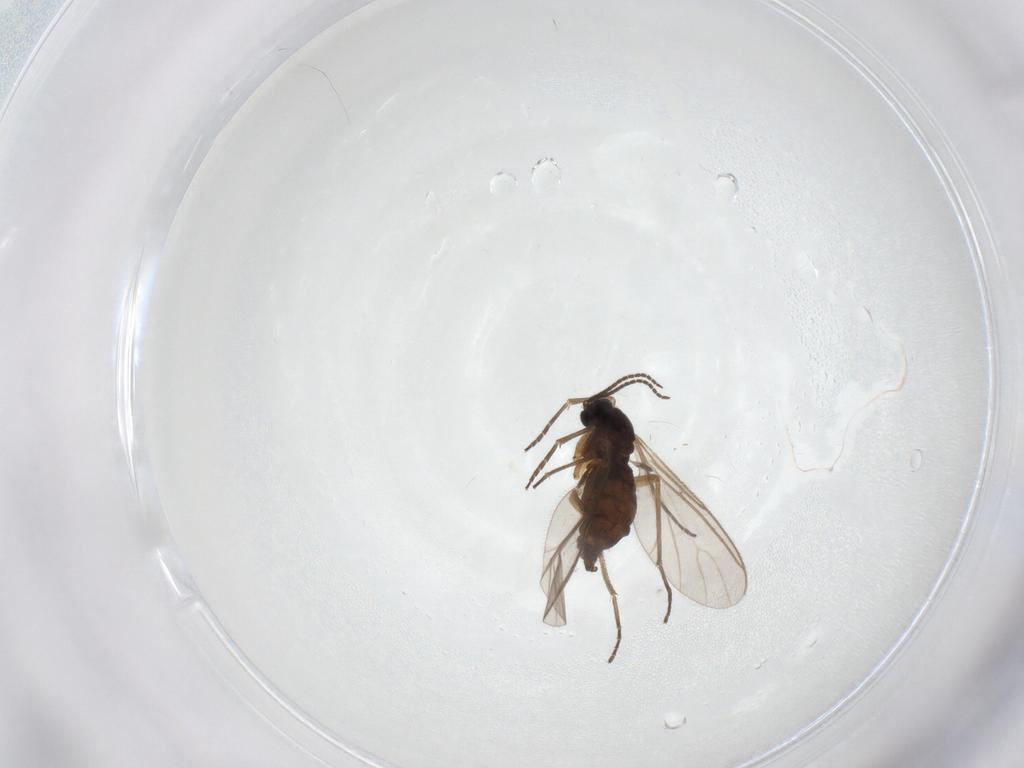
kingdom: Animalia
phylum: Arthropoda
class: Insecta
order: Diptera
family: Sciaridae
